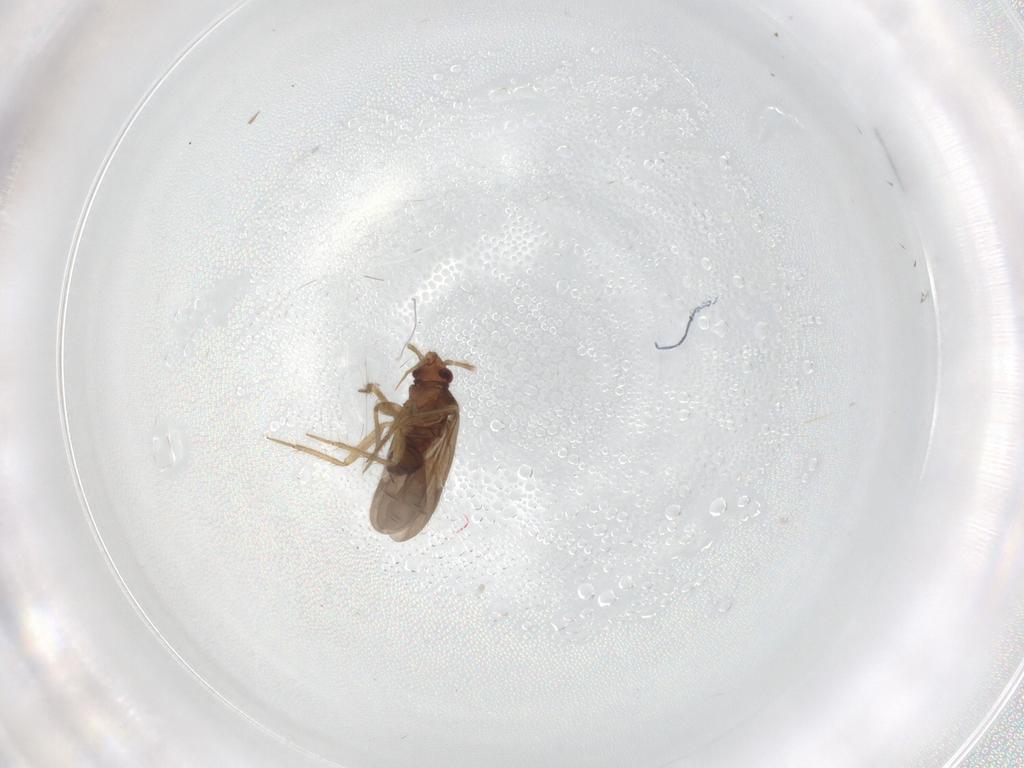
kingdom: Animalia
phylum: Arthropoda
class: Insecta
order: Hemiptera
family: Ceratocombidae
